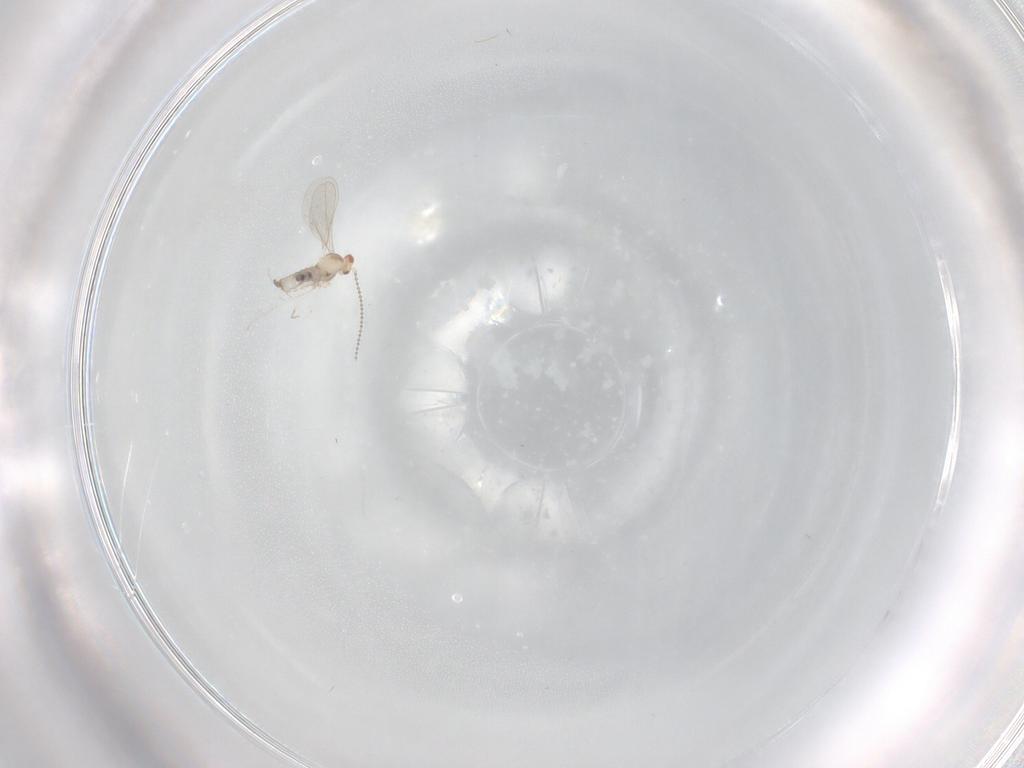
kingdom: Animalia
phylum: Arthropoda
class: Insecta
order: Diptera
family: Cecidomyiidae
